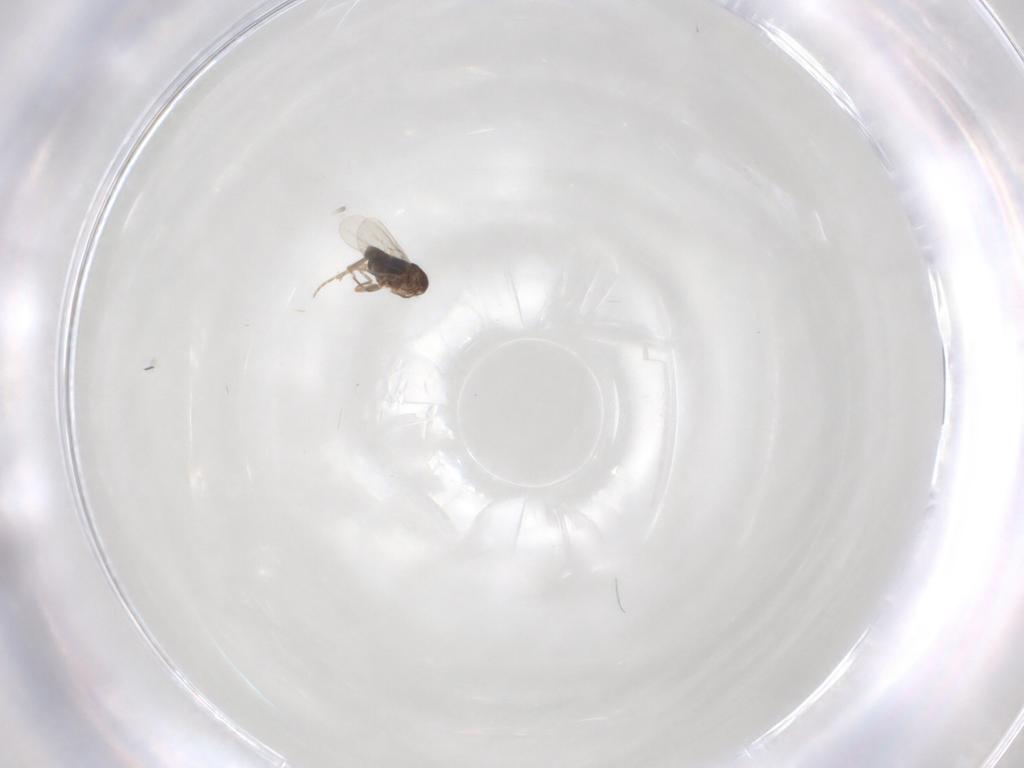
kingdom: Animalia
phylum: Arthropoda
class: Insecta
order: Diptera
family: Phoridae
